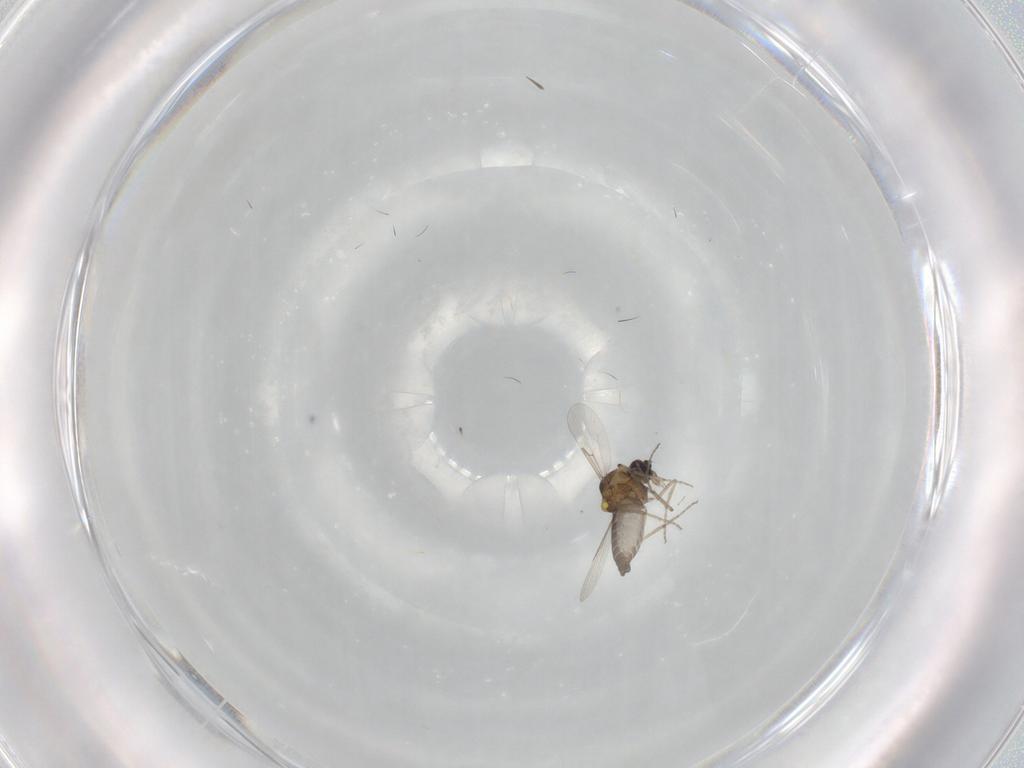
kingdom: Animalia
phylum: Arthropoda
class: Insecta
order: Diptera
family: Ceratopogonidae
